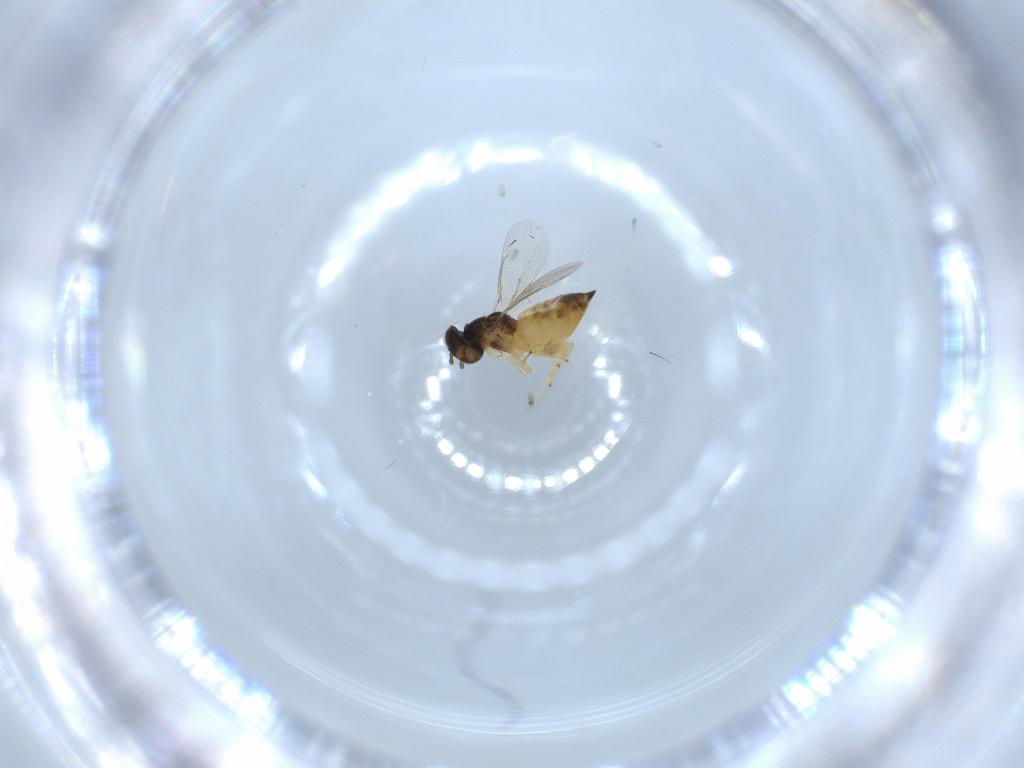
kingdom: Animalia
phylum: Arthropoda
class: Insecta
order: Hymenoptera
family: Eulophidae
